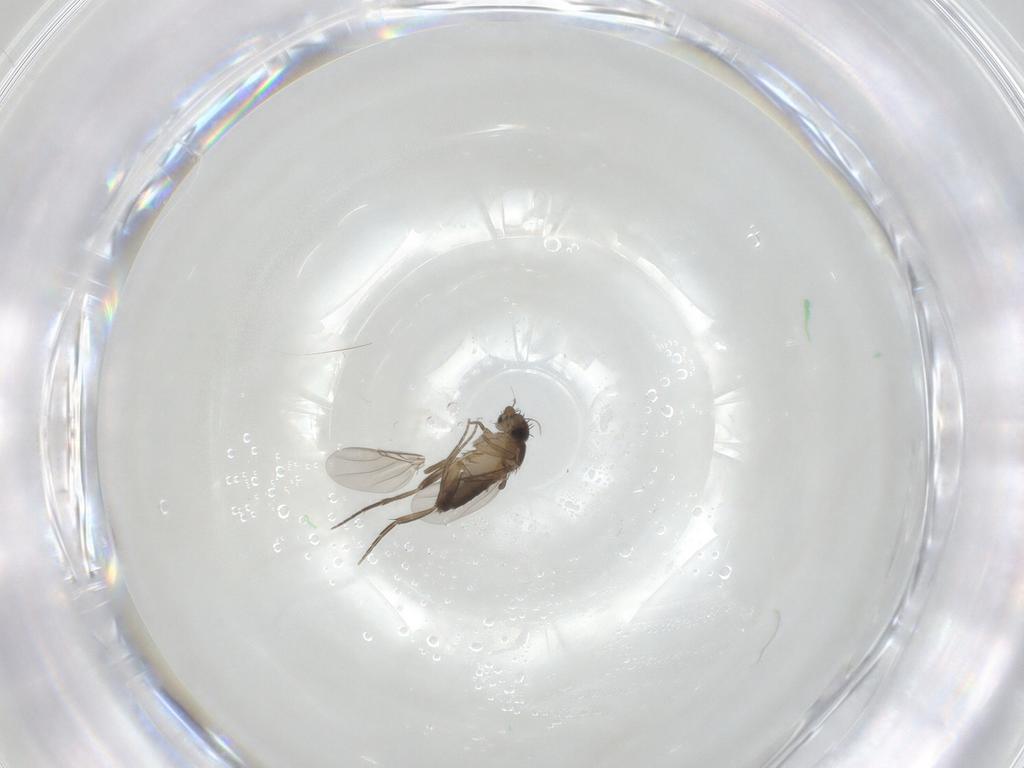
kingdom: Animalia
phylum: Arthropoda
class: Insecta
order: Diptera
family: Phoridae
